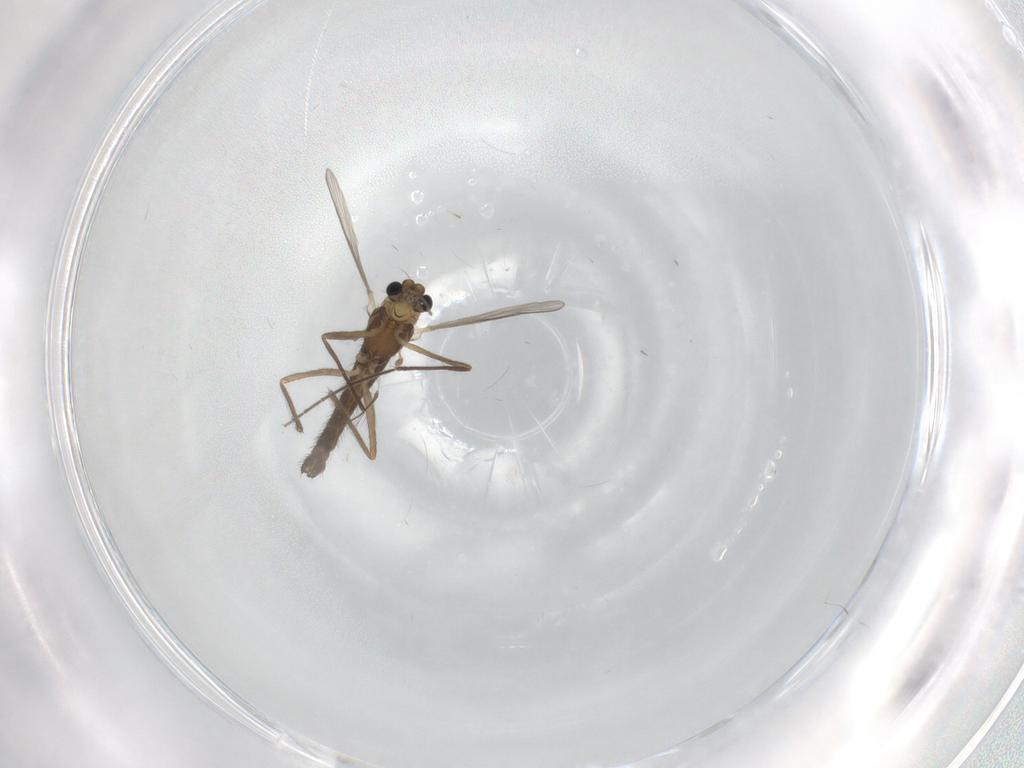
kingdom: Animalia
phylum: Arthropoda
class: Insecta
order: Diptera
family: Chironomidae
